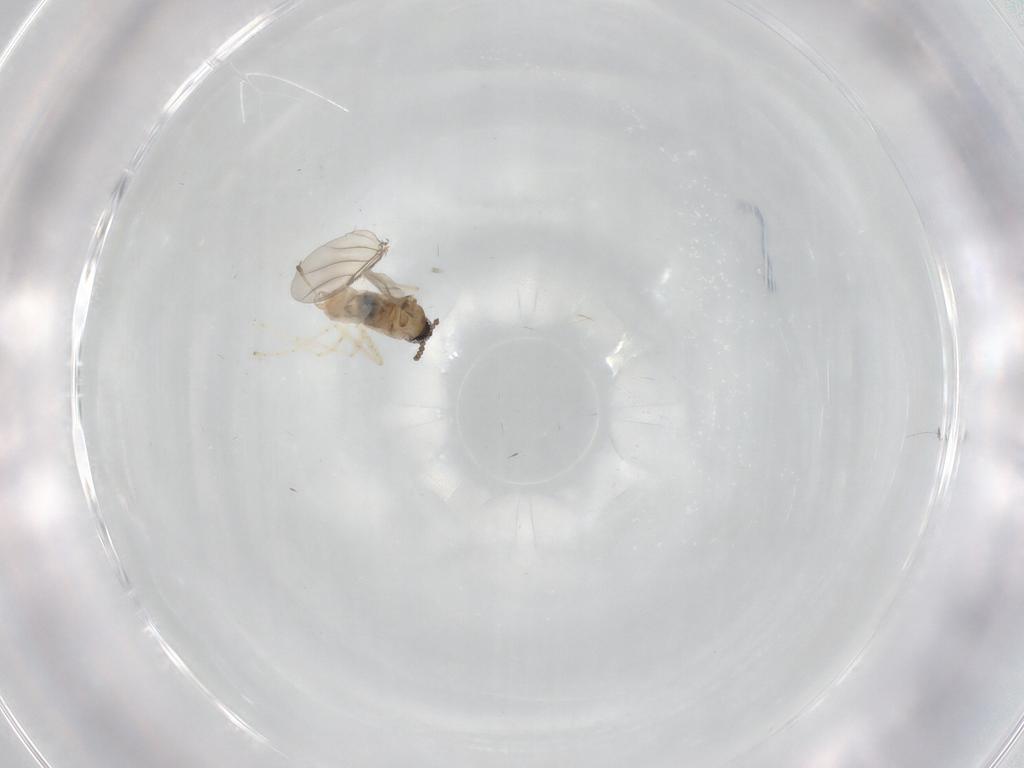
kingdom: Animalia
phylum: Arthropoda
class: Insecta
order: Diptera
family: Cecidomyiidae
